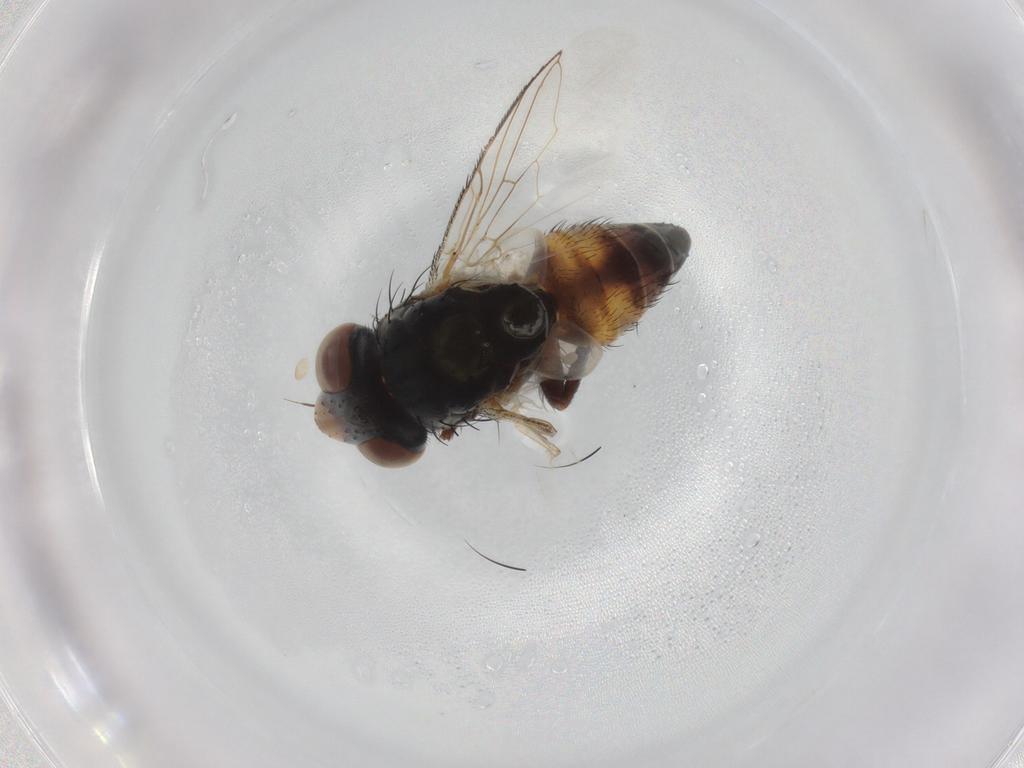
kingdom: Animalia
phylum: Arthropoda
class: Insecta
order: Diptera
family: Sarcophagidae
